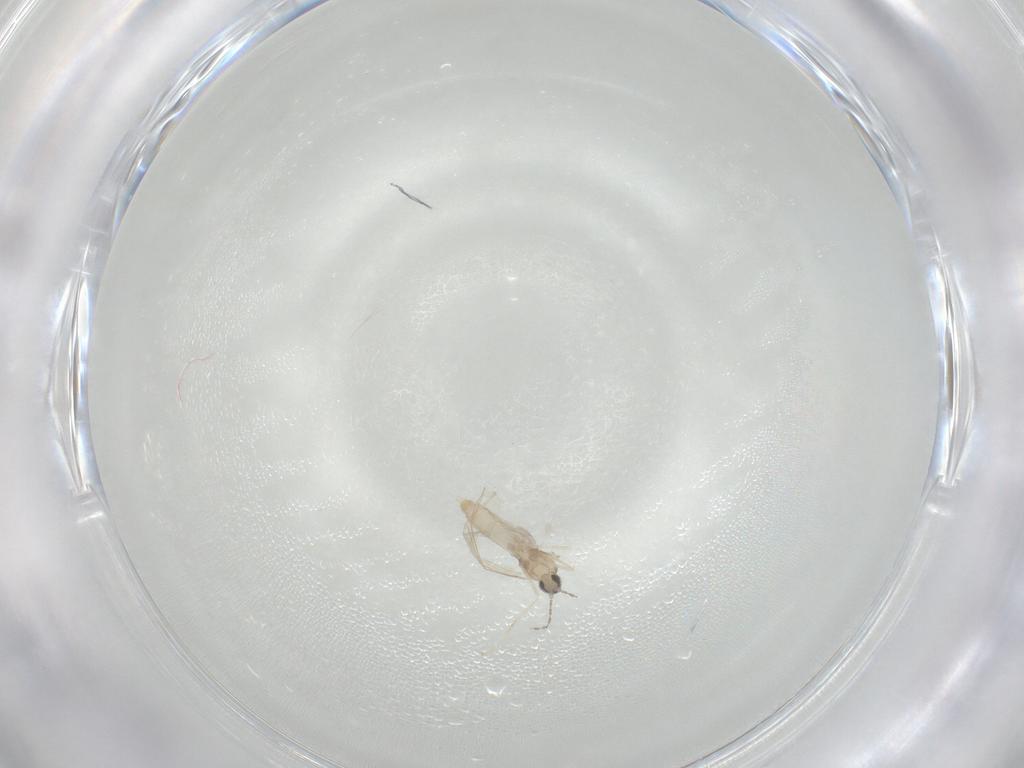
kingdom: Animalia
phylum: Arthropoda
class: Insecta
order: Diptera
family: Cecidomyiidae
